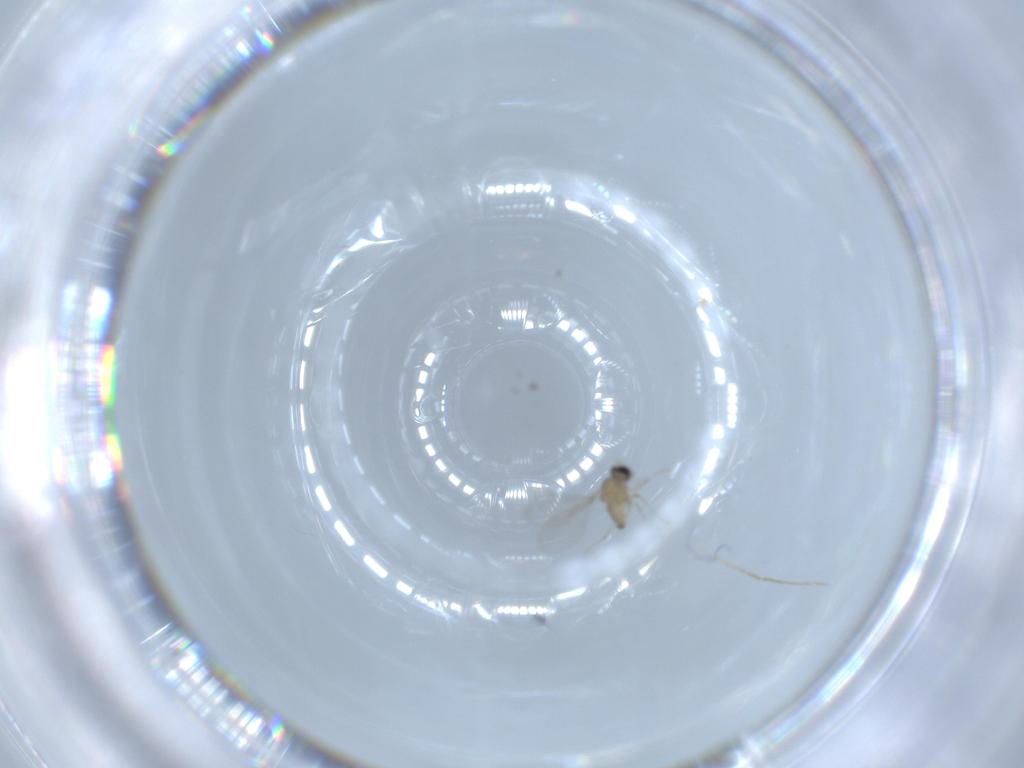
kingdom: Animalia
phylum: Arthropoda
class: Insecta
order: Diptera
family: Cecidomyiidae
